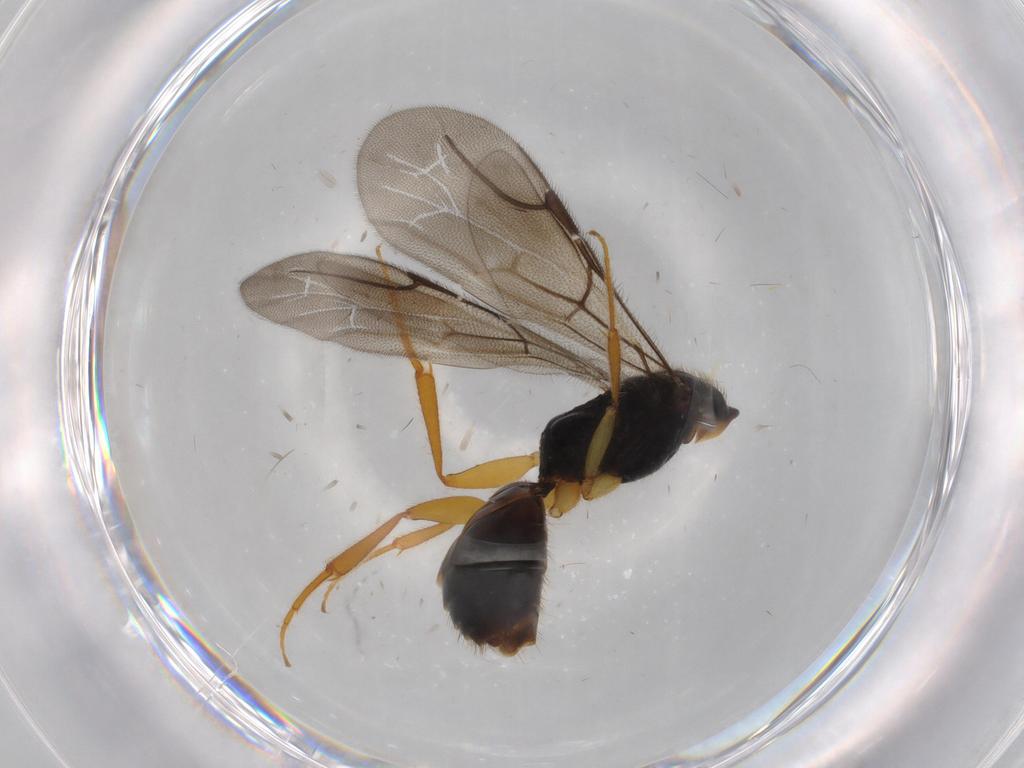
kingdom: Animalia
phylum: Arthropoda
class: Insecta
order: Hymenoptera
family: Bethylidae
